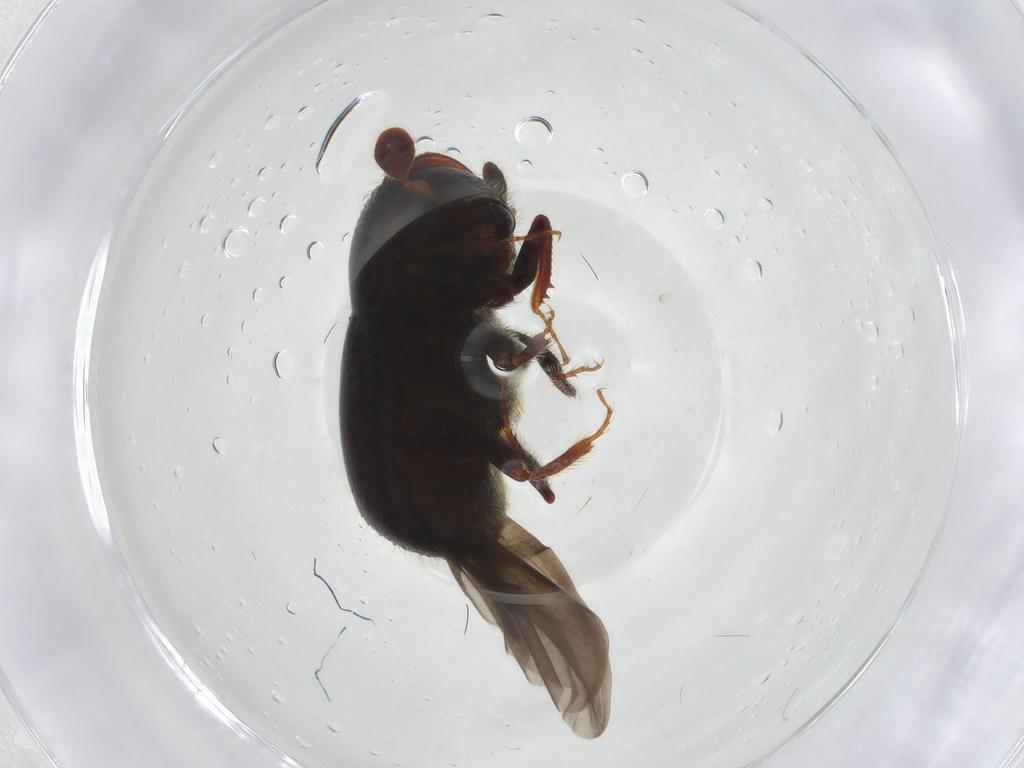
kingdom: Animalia
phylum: Arthropoda
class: Insecta
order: Coleoptera
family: Curculionidae
